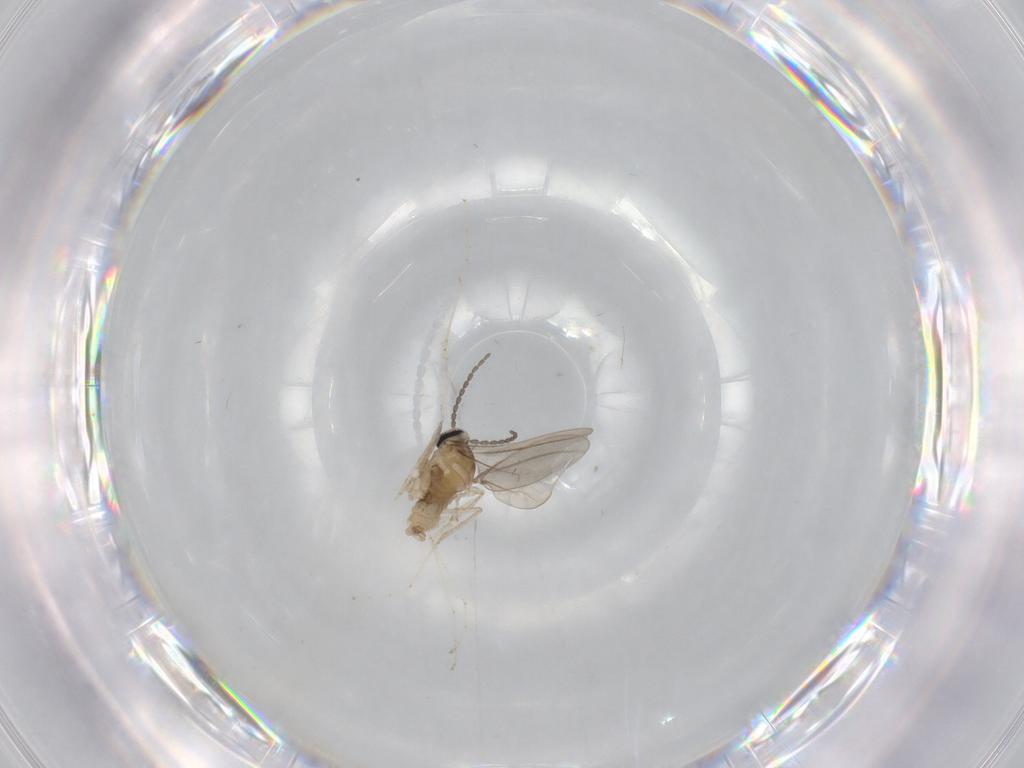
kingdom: Animalia
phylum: Arthropoda
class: Insecta
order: Diptera
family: Cecidomyiidae
